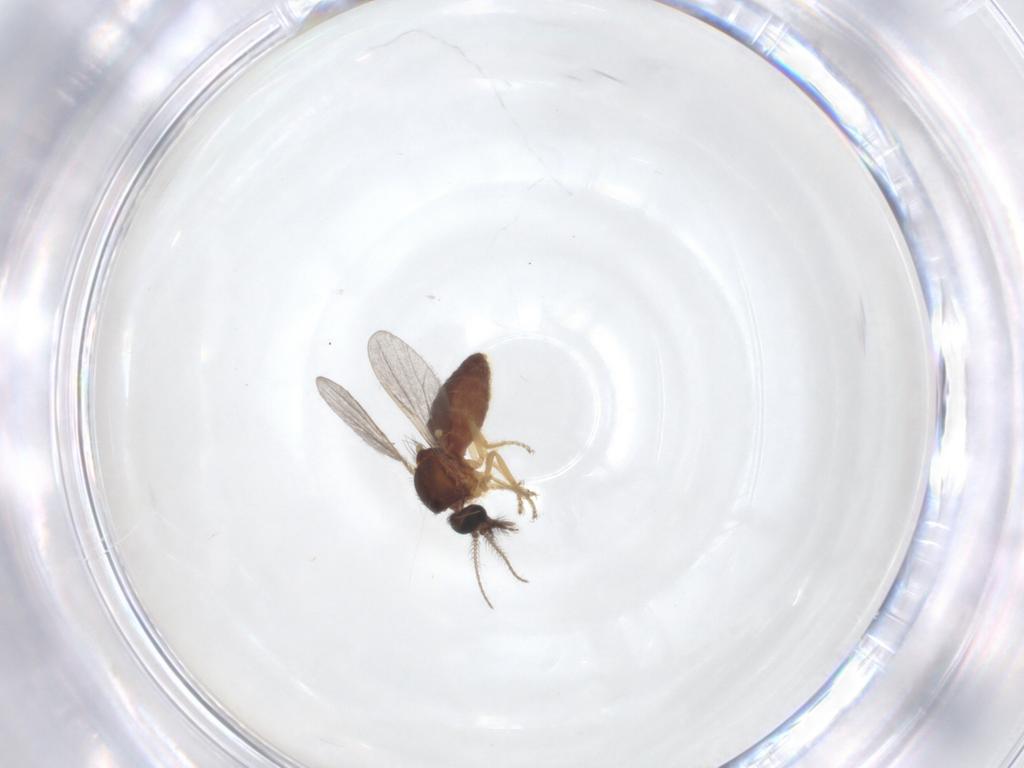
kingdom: Animalia
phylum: Arthropoda
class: Insecta
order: Diptera
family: Ceratopogonidae
